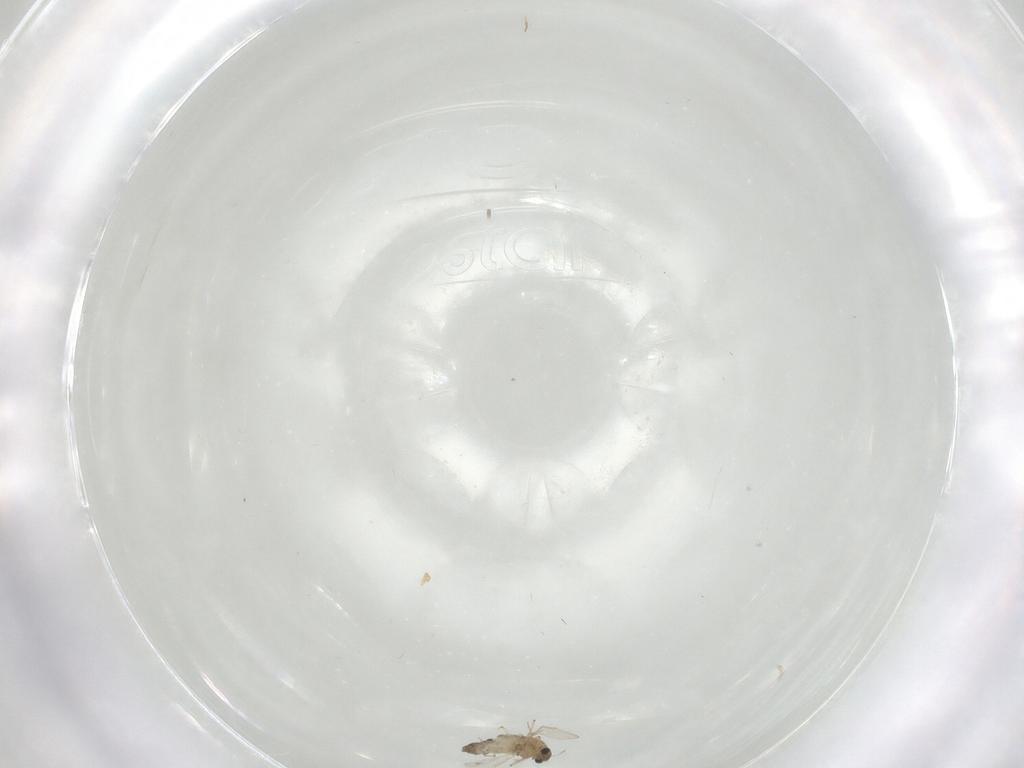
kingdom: Animalia
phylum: Arthropoda
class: Insecta
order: Diptera
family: Chironomidae
